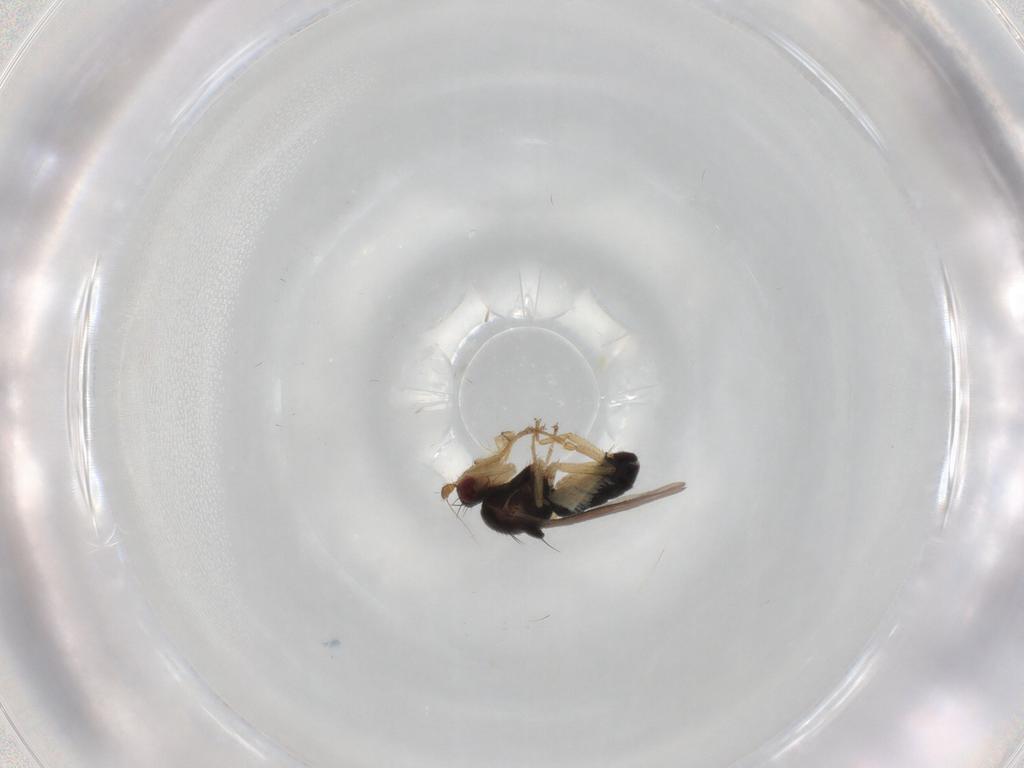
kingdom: Animalia
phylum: Arthropoda
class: Insecta
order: Diptera
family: Sphaeroceridae
